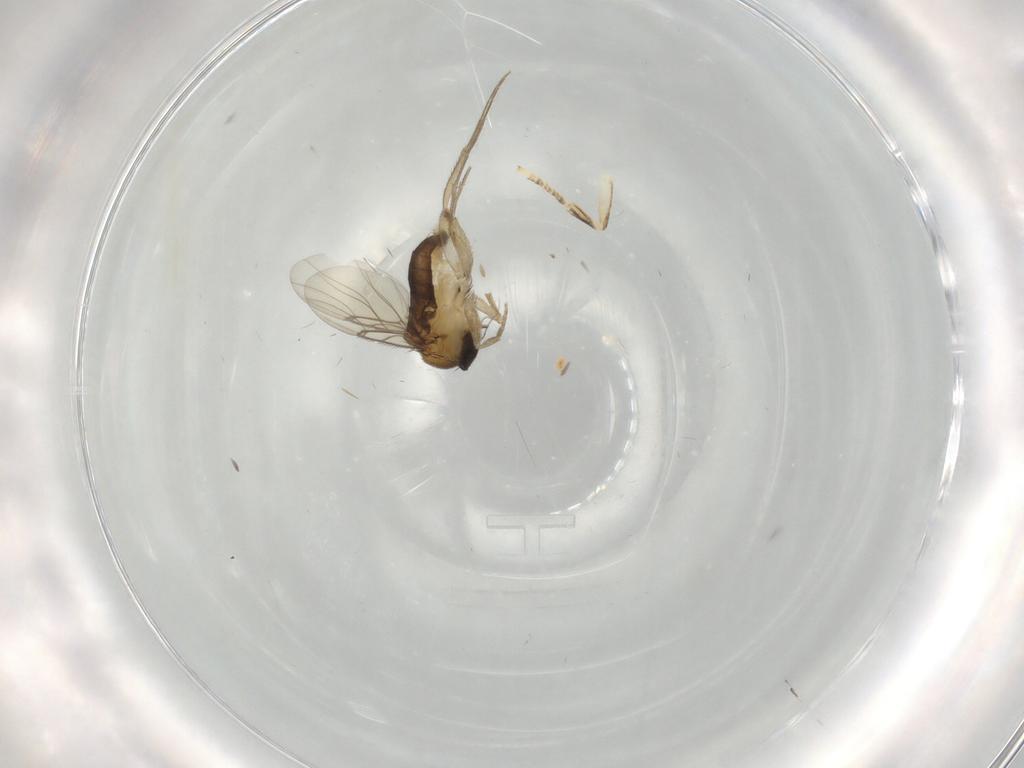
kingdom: Animalia
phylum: Arthropoda
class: Insecta
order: Diptera
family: Phoridae
